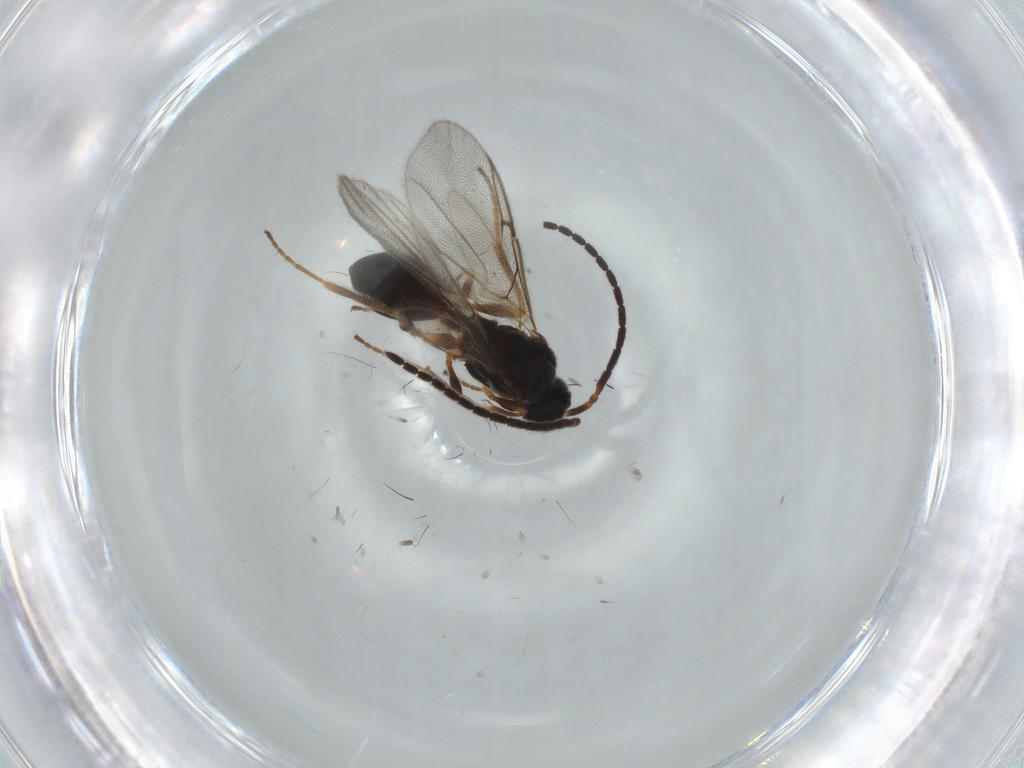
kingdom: Animalia
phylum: Arthropoda
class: Insecta
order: Hymenoptera
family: Diapriidae
